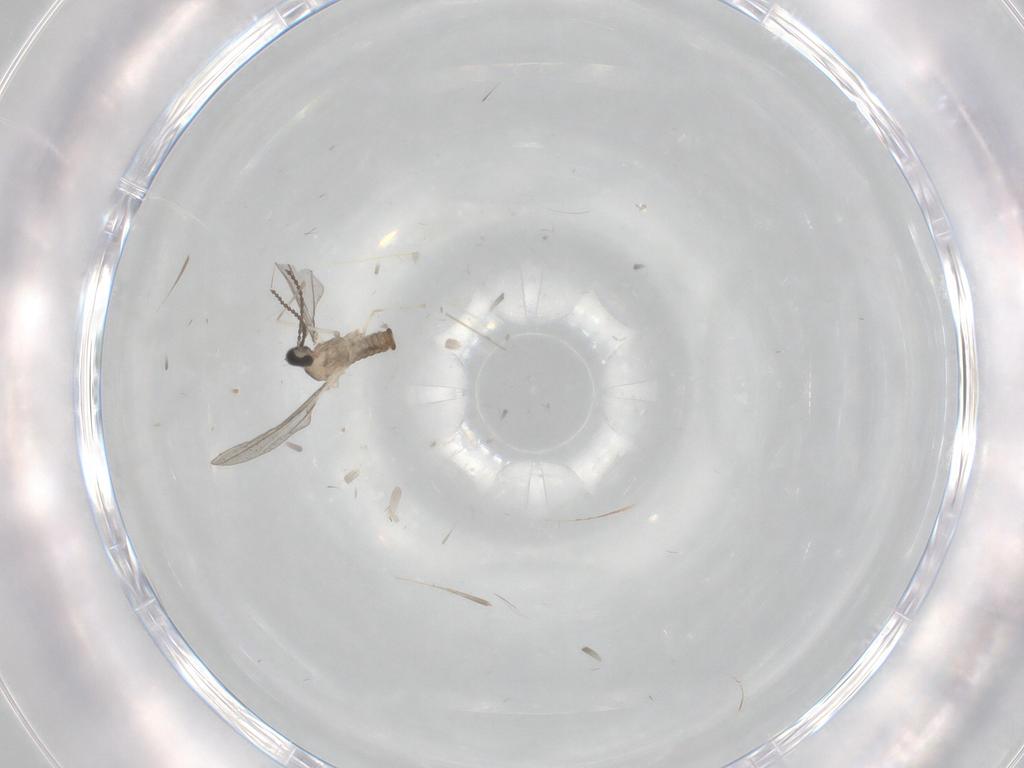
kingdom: Animalia
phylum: Arthropoda
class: Insecta
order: Diptera
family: Cecidomyiidae
